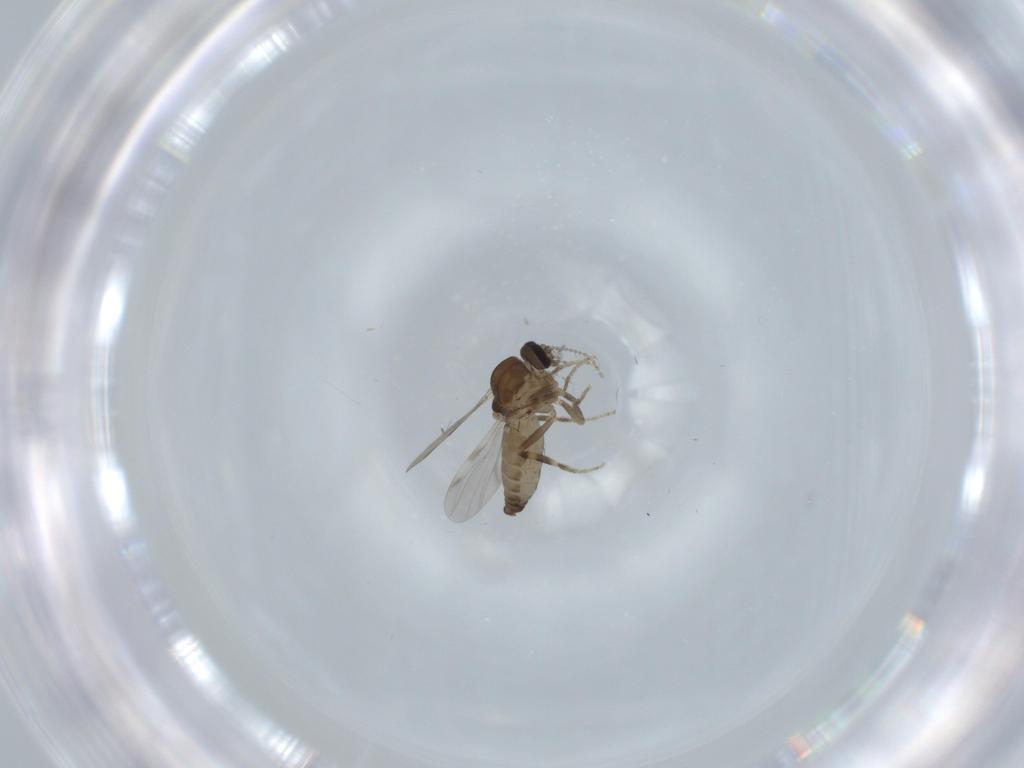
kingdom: Animalia
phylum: Arthropoda
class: Insecta
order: Diptera
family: Ceratopogonidae
